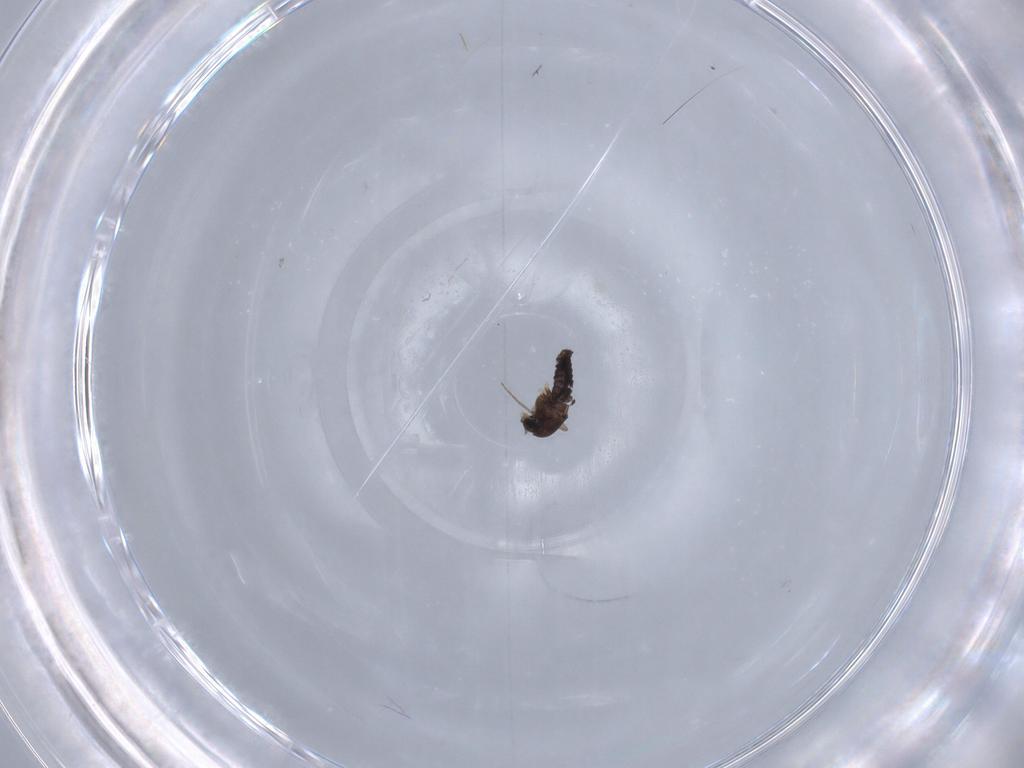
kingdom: Animalia
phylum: Arthropoda
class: Insecta
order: Diptera
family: Chironomidae
